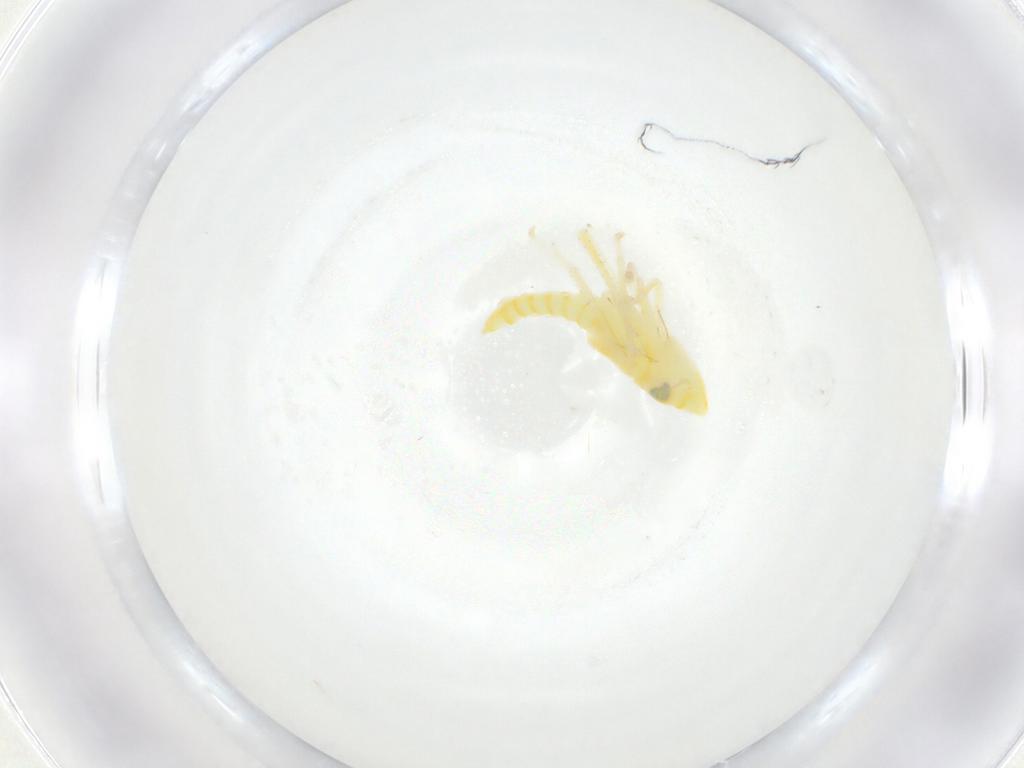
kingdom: Animalia
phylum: Arthropoda
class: Insecta
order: Hemiptera
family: Cicadellidae
